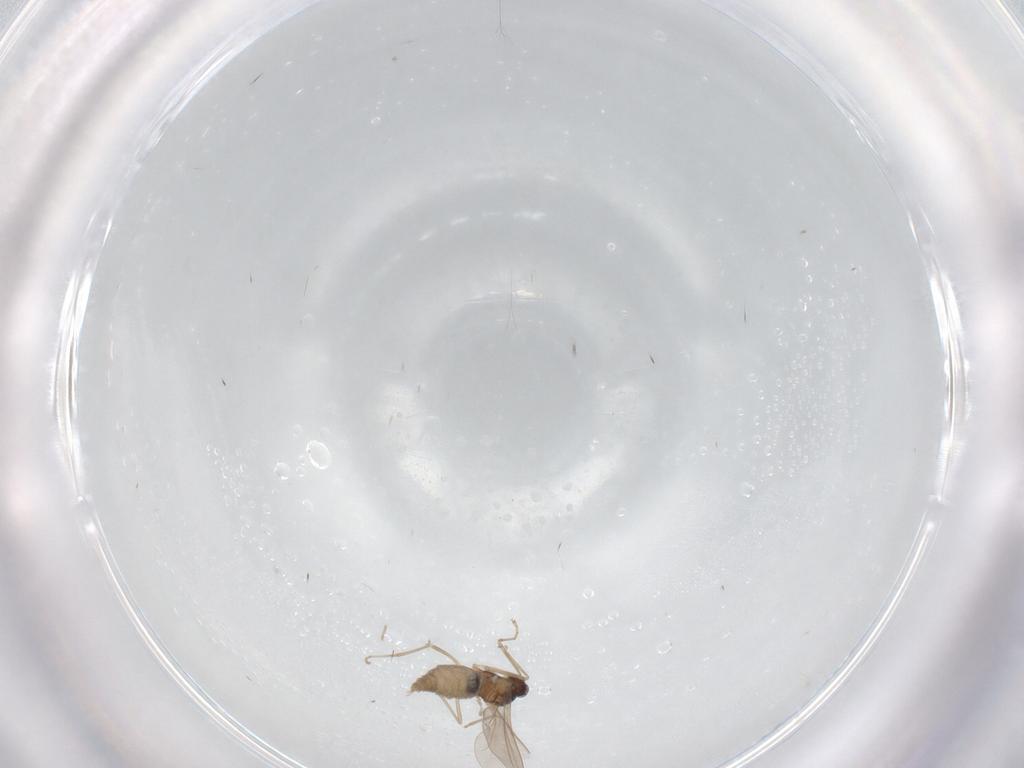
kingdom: Animalia
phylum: Arthropoda
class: Insecta
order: Diptera
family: Cecidomyiidae
